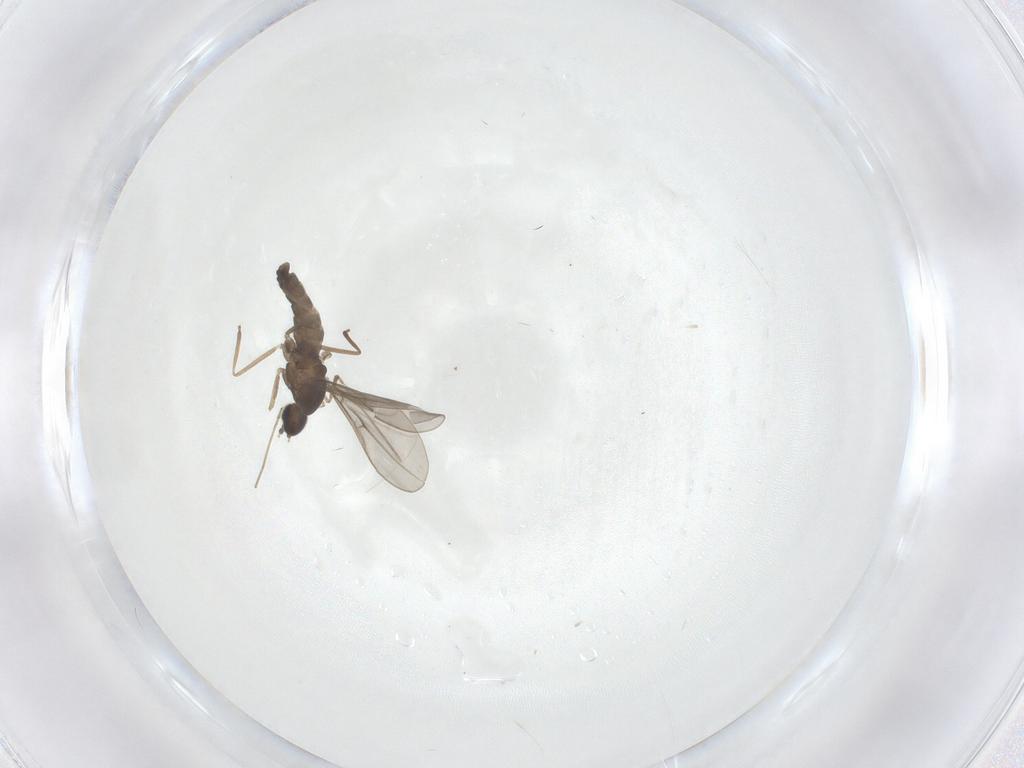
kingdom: Animalia
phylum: Arthropoda
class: Insecta
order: Diptera
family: Cecidomyiidae
